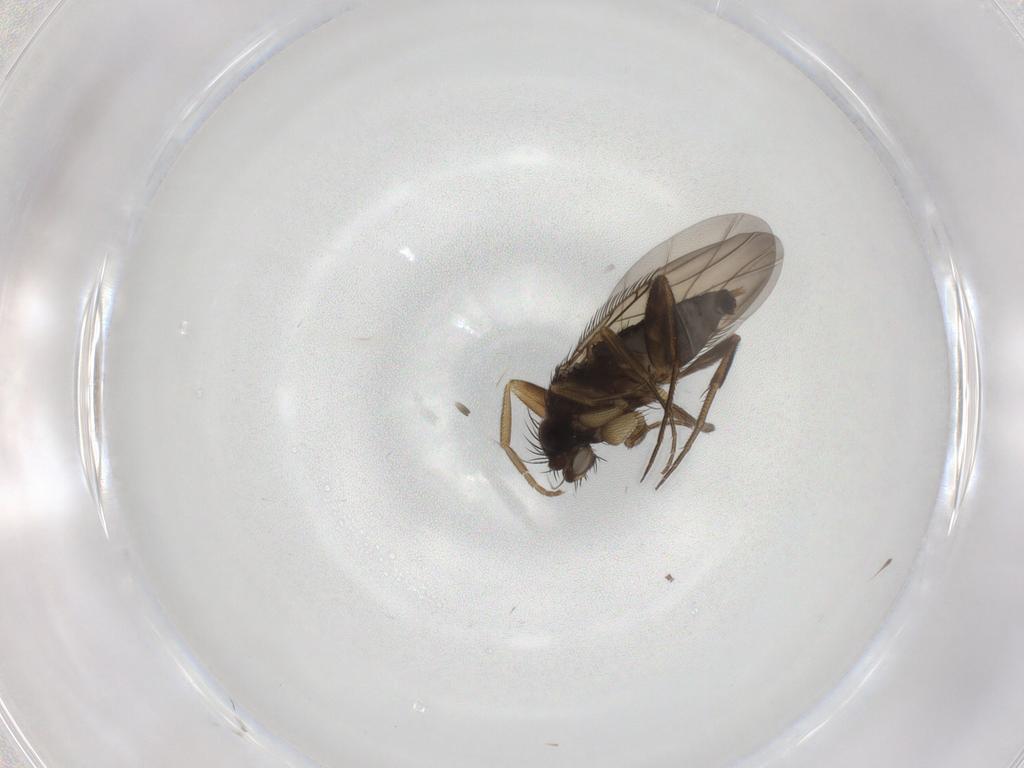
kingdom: Animalia
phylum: Arthropoda
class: Insecta
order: Diptera
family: Phoridae
